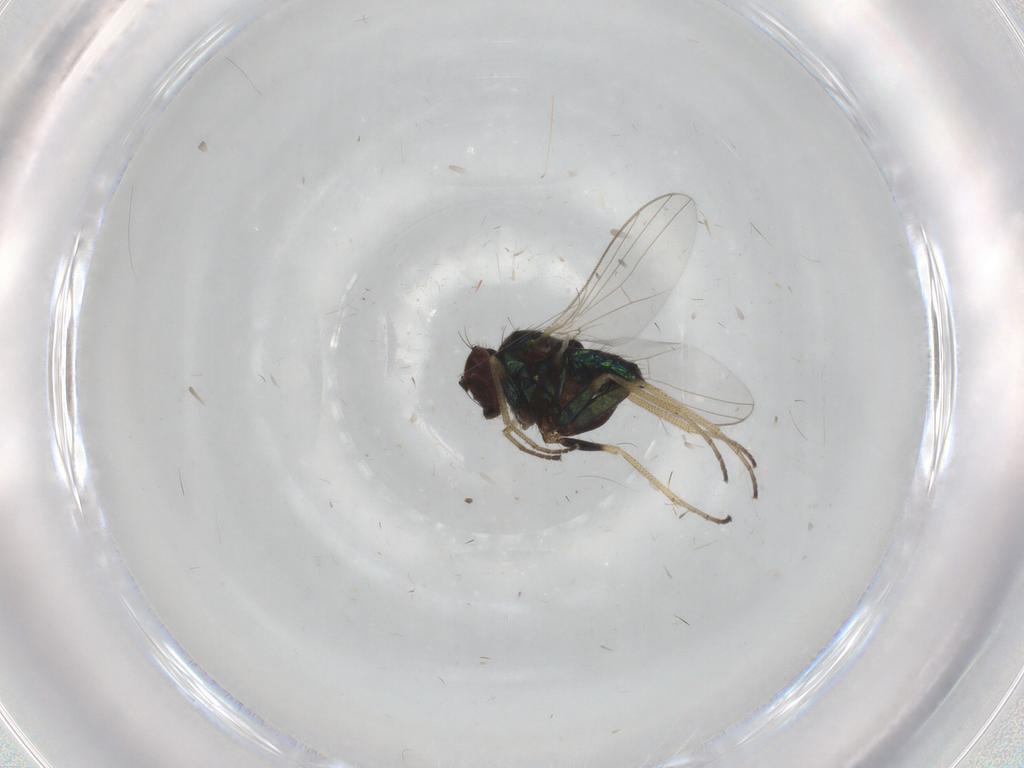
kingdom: Animalia
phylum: Arthropoda
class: Insecta
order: Diptera
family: Dolichopodidae
